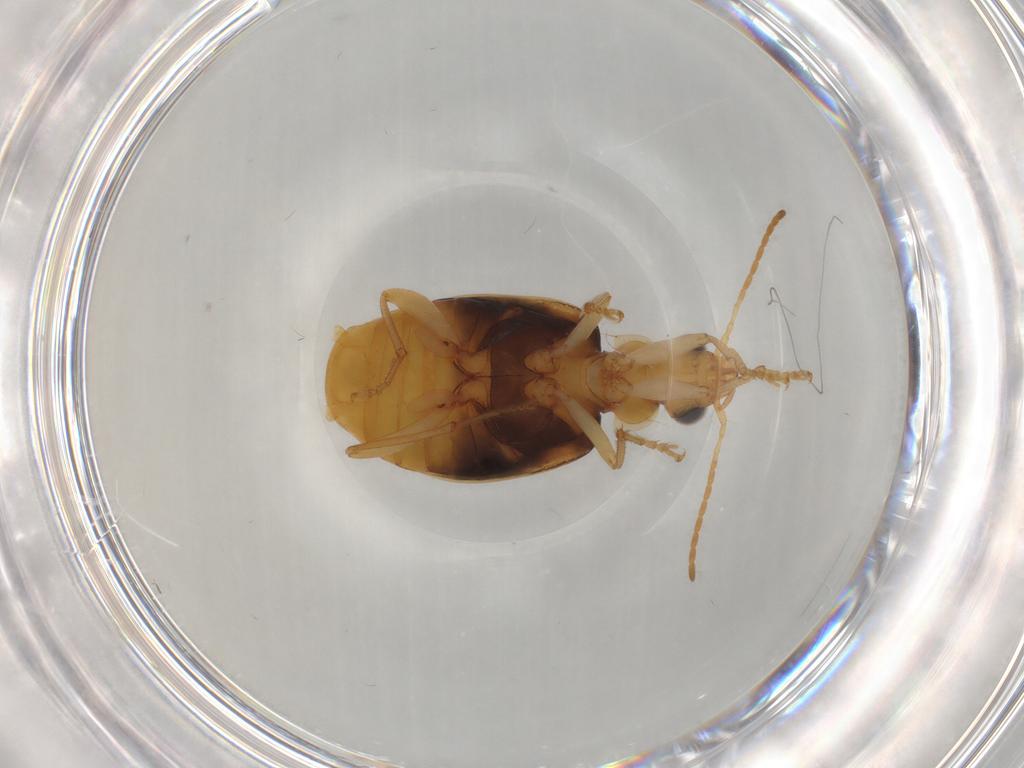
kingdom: Animalia
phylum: Arthropoda
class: Insecta
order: Coleoptera
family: Carabidae
